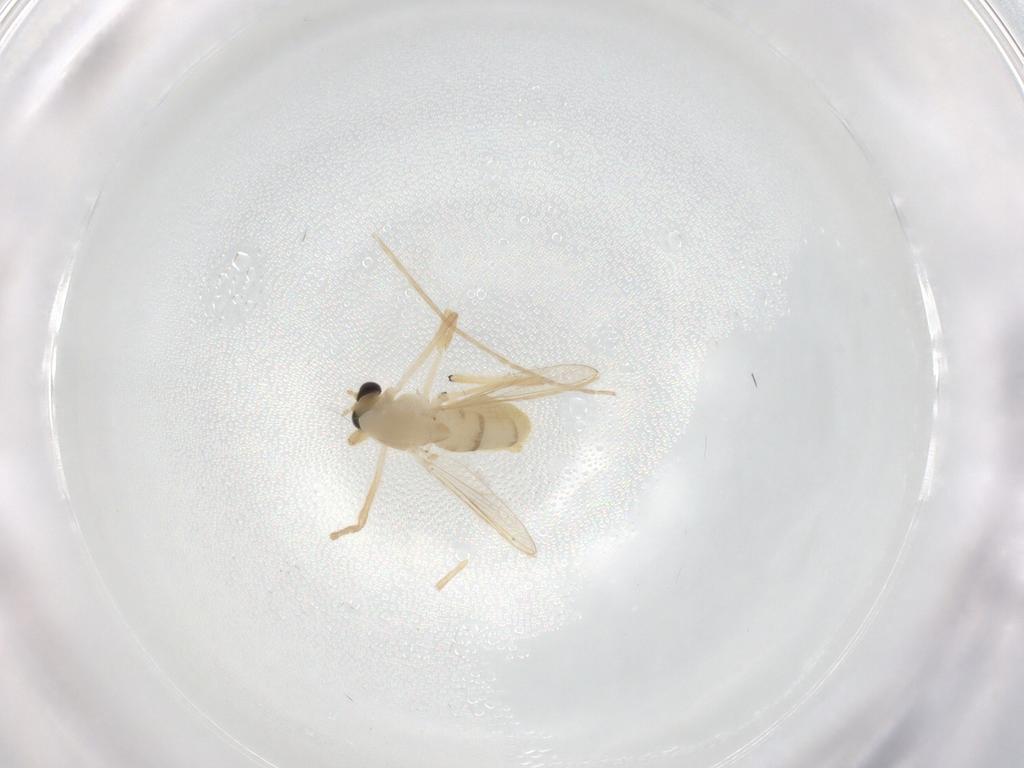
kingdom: Animalia
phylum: Arthropoda
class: Insecta
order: Diptera
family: Chironomidae
